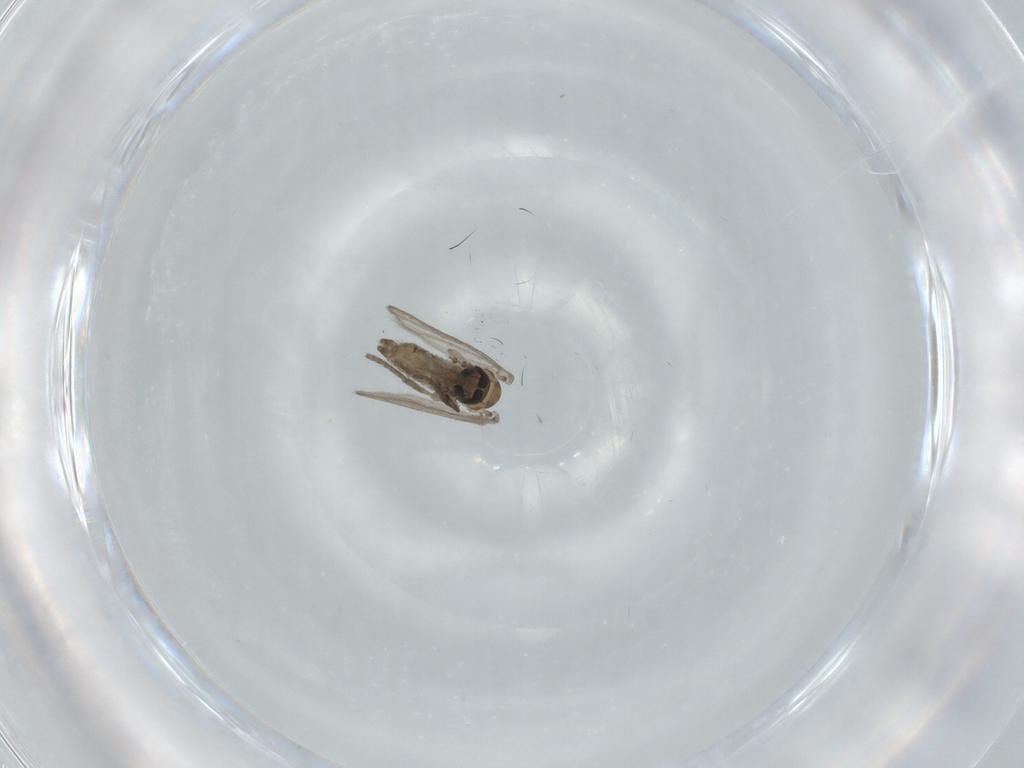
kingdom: Animalia
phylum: Arthropoda
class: Insecta
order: Diptera
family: Psychodidae
